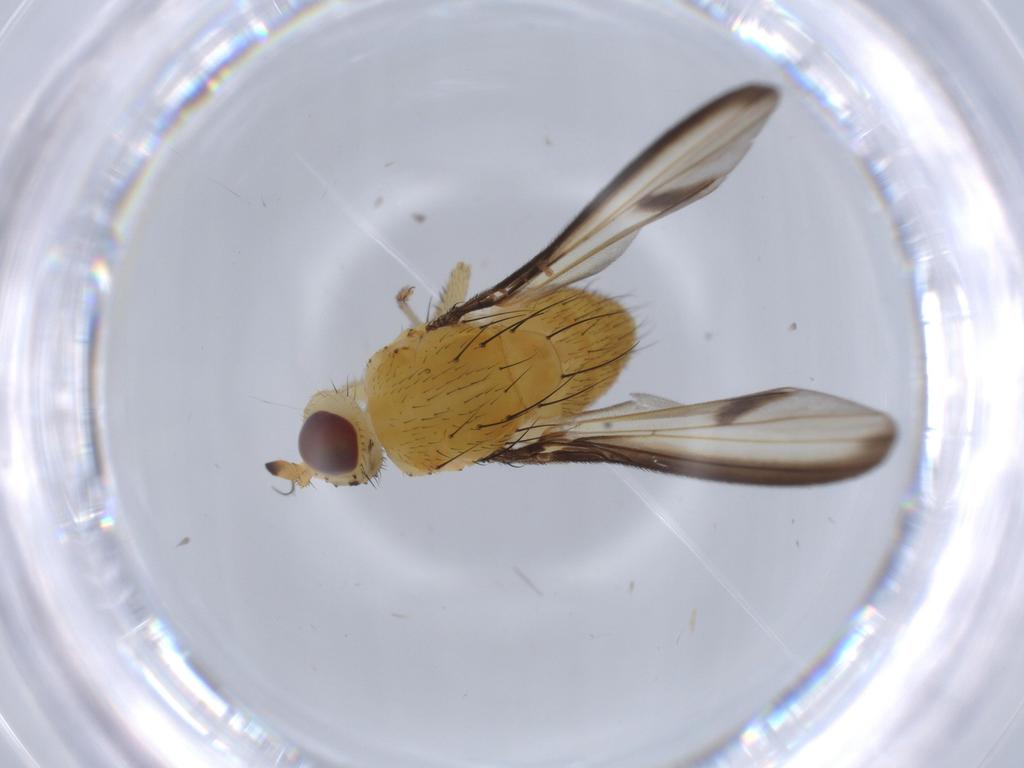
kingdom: Animalia
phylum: Arthropoda
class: Insecta
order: Diptera
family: Lauxaniidae
